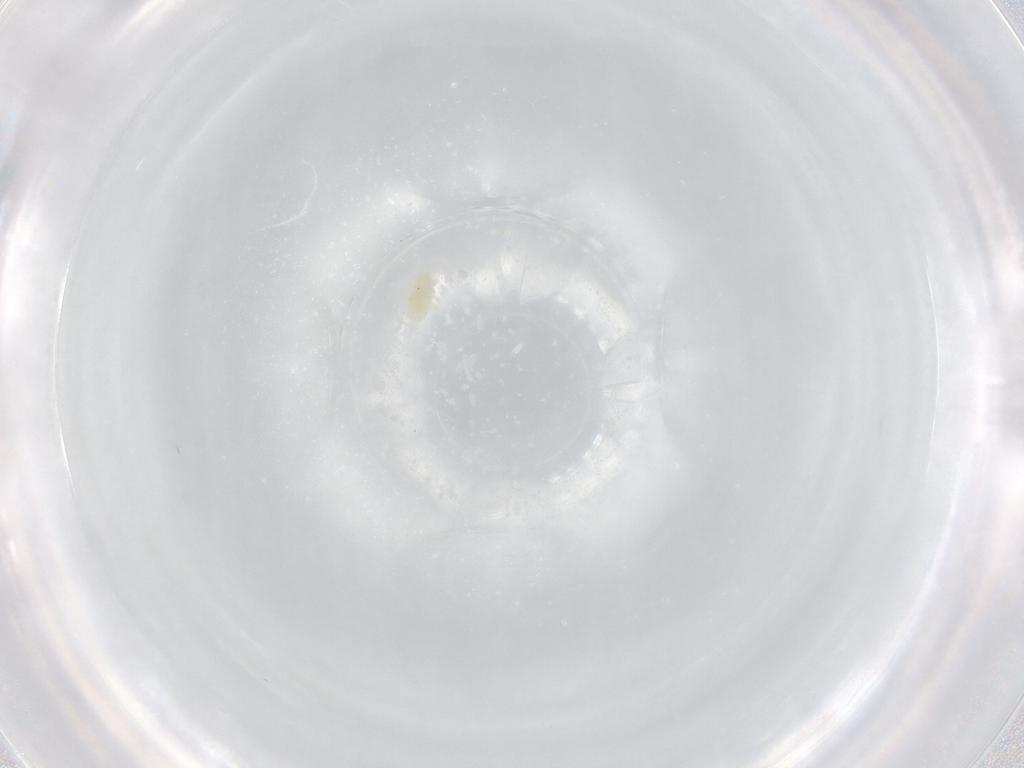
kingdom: Animalia
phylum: Arthropoda
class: Arachnida
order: Trombidiformes
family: Eupodidae
